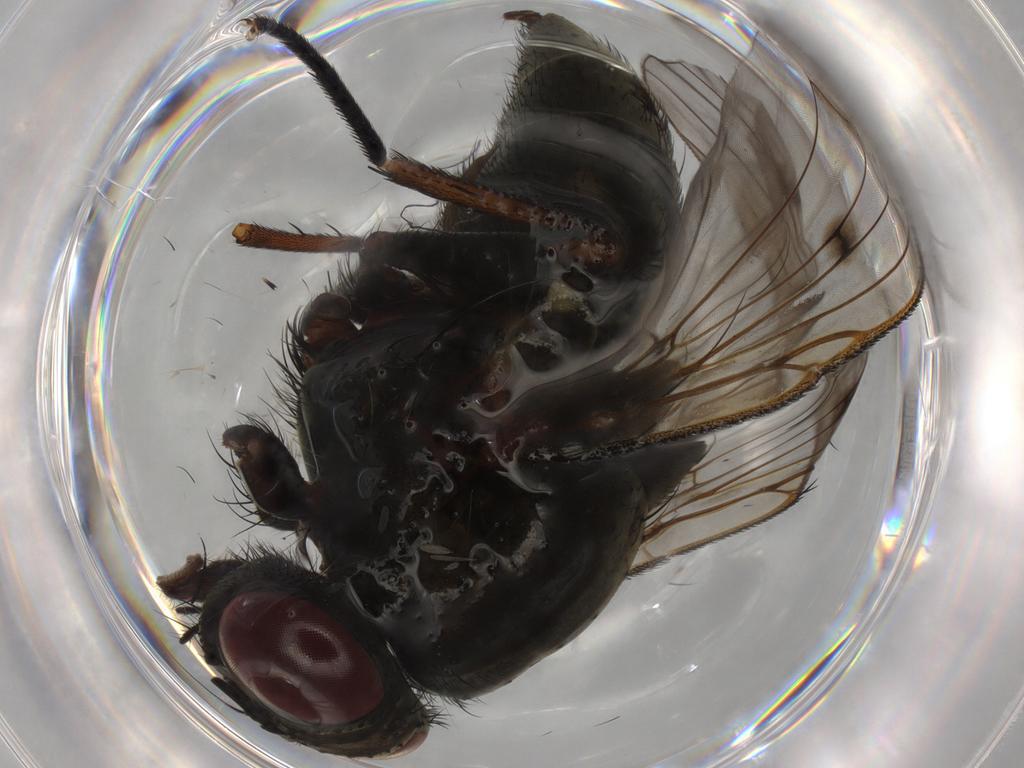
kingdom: Animalia
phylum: Arthropoda
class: Insecta
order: Diptera
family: Muscidae
